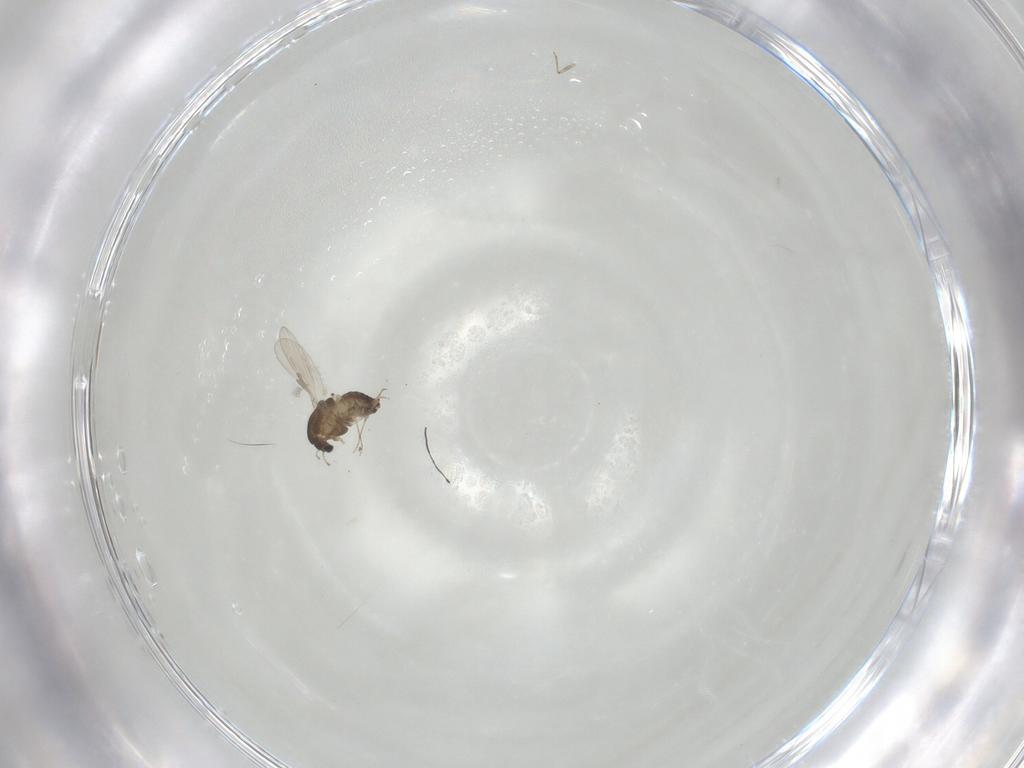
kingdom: Animalia
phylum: Arthropoda
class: Insecta
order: Diptera
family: Chironomidae
